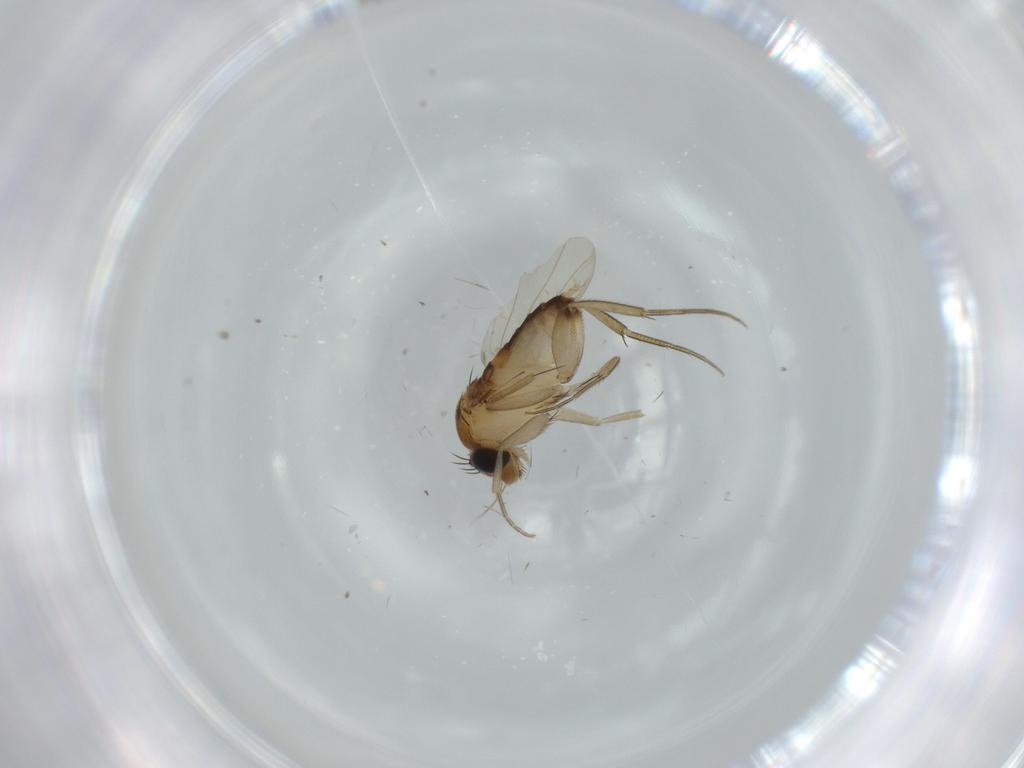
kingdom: Animalia
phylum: Arthropoda
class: Insecta
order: Diptera
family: Phoridae
